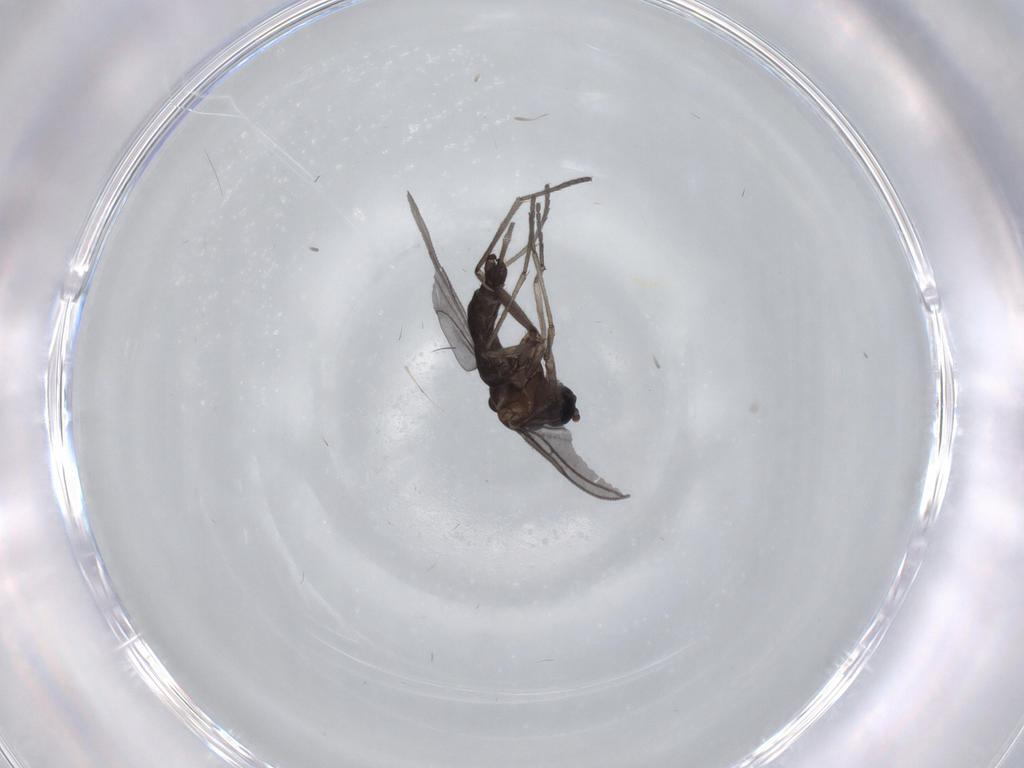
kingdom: Animalia
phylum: Arthropoda
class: Insecta
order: Diptera
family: Sciaridae
